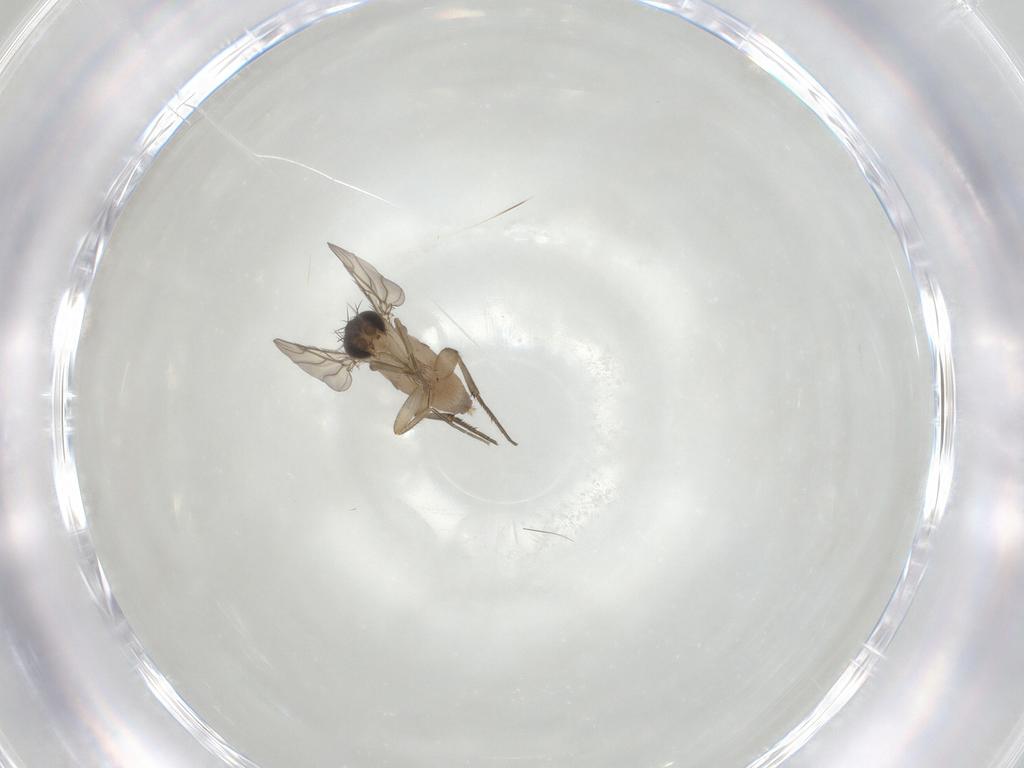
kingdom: Animalia
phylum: Arthropoda
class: Insecta
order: Diptera
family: Phoridae
